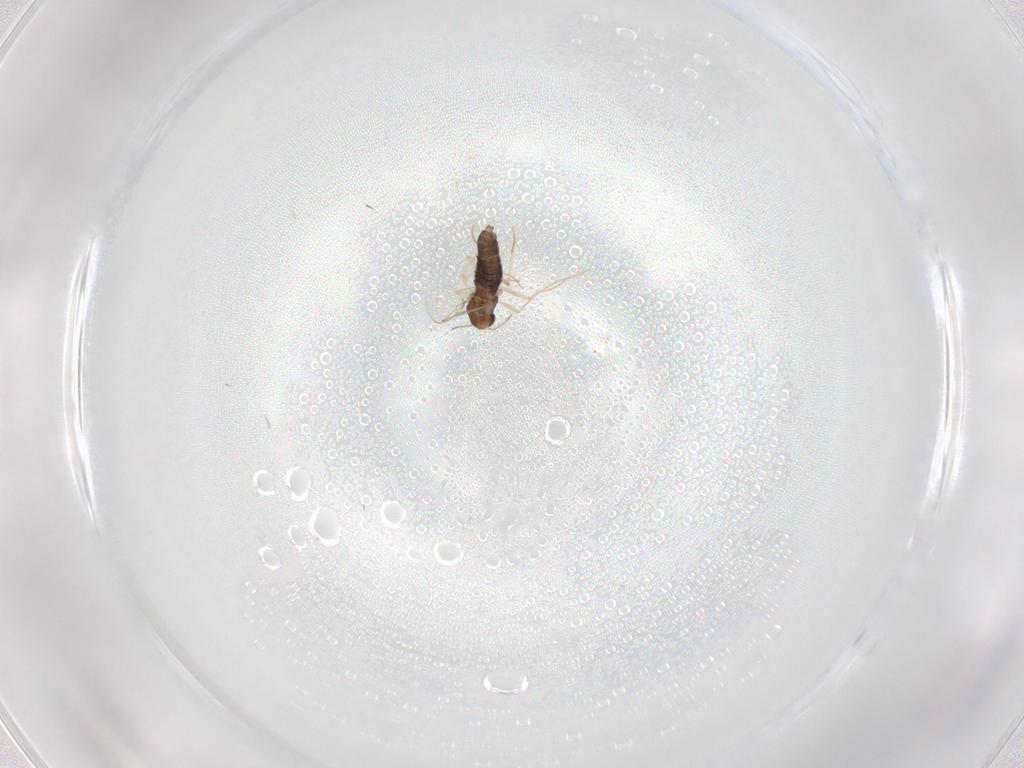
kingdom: Animalia
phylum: Arthropoda
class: Insecta
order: Diptera
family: Chironomidae
